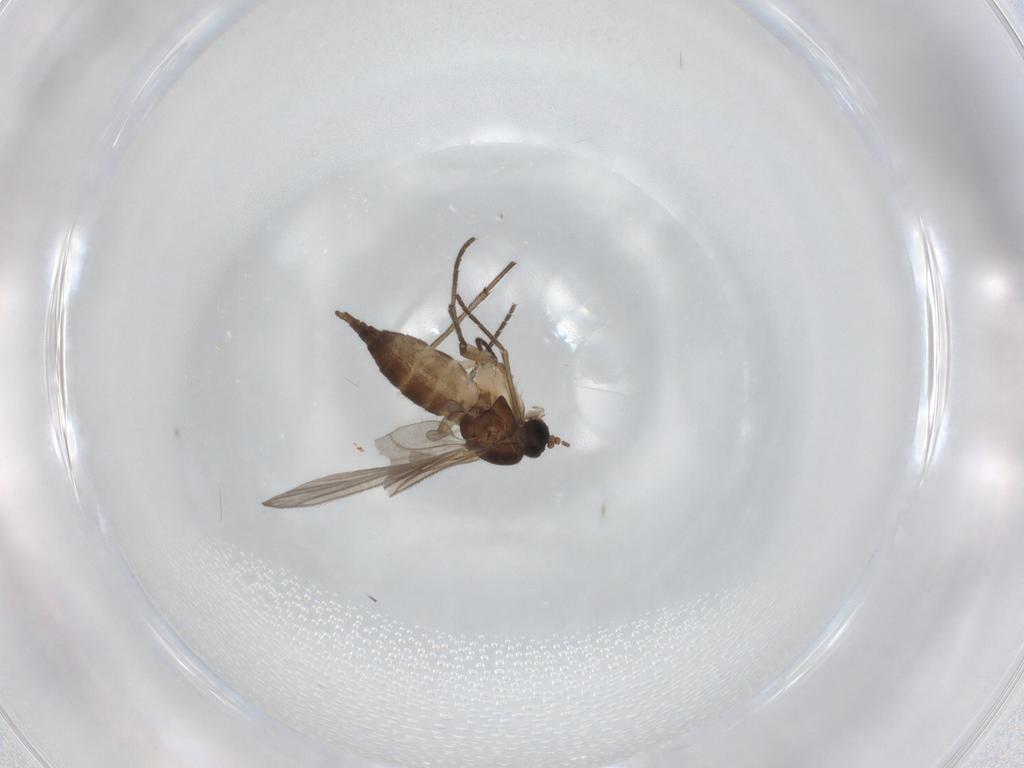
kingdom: Animalia
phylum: Arthropoda
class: Insecta
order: Diptera
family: Sciaridae
